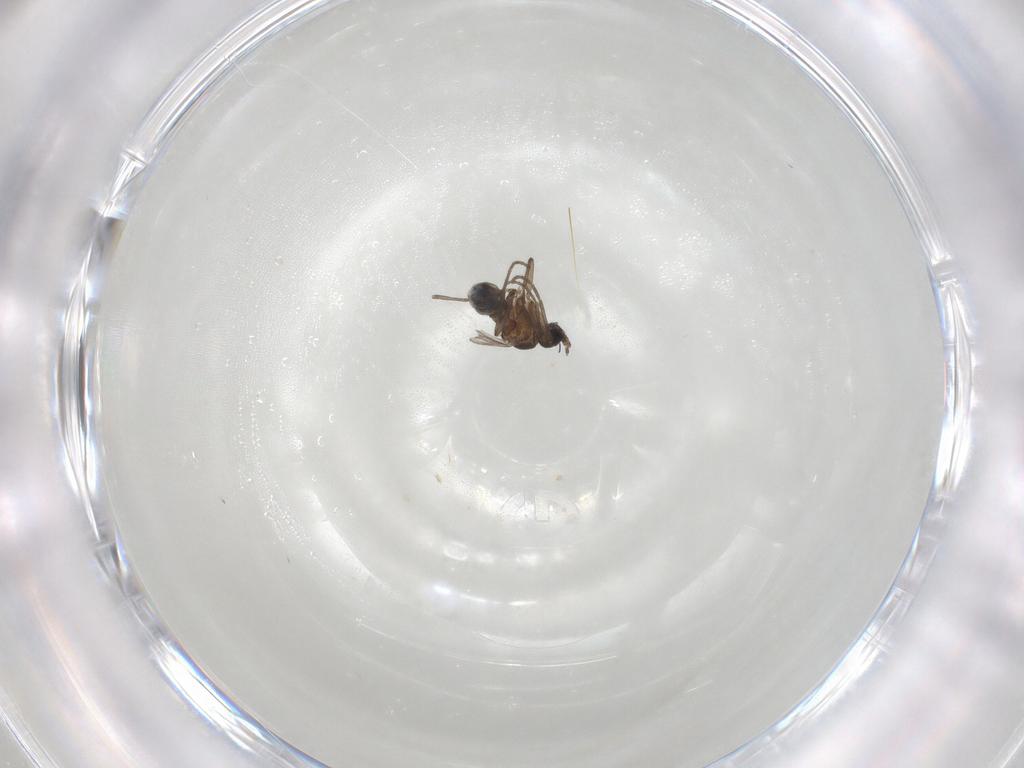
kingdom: Animalia
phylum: Arthropoda
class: Insecta
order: Diptera
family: Sciaridae
